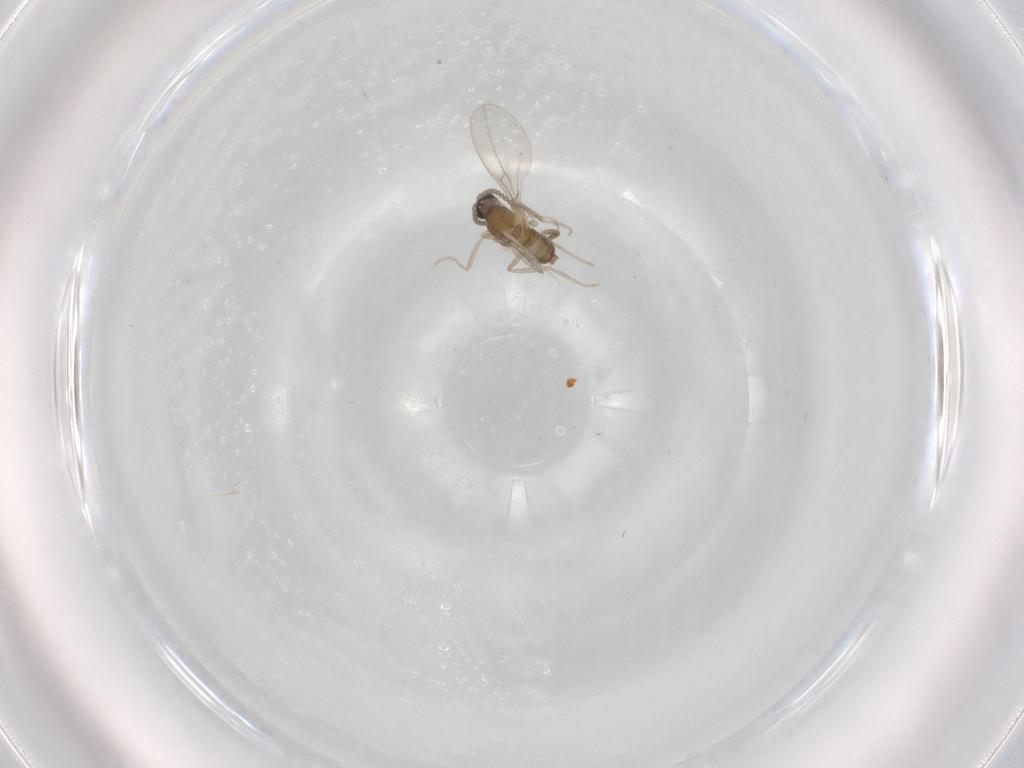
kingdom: Animalia
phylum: Arthropoda
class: Insecta
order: Diptera
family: Cecidomyiidae
